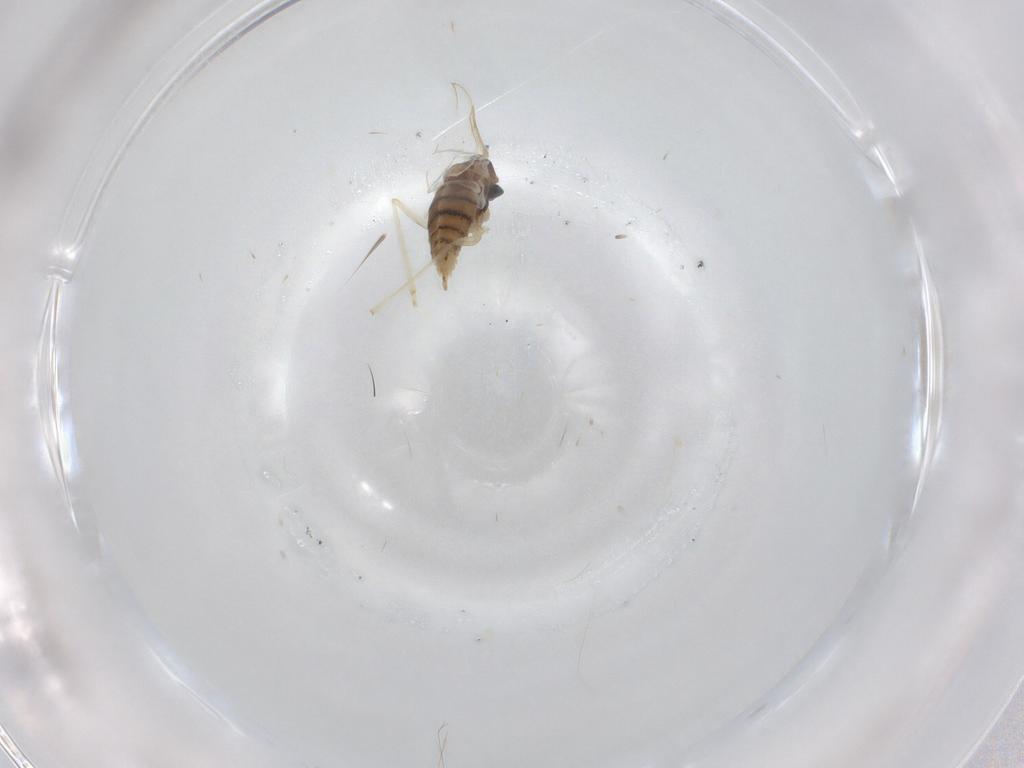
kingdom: Animalia
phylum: Arthropoda
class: Insecta
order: Diptera
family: Cecidomyiidae
